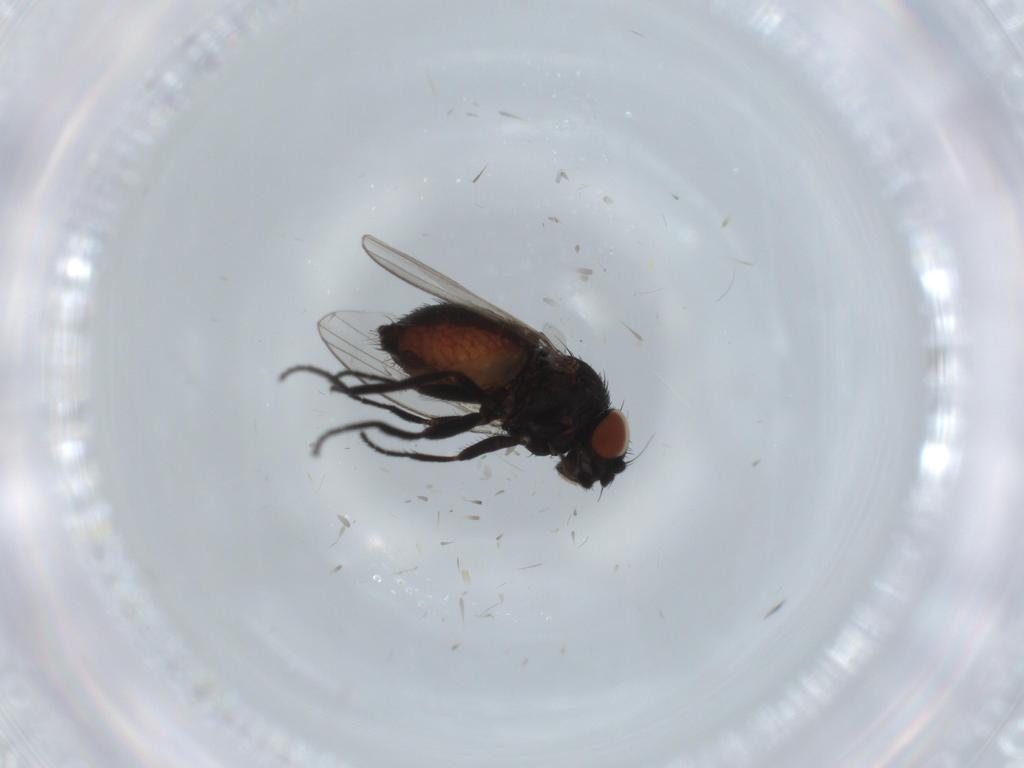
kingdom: Animalia
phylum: Arthropoda
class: Insecta
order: Diptera
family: Milichiidae
